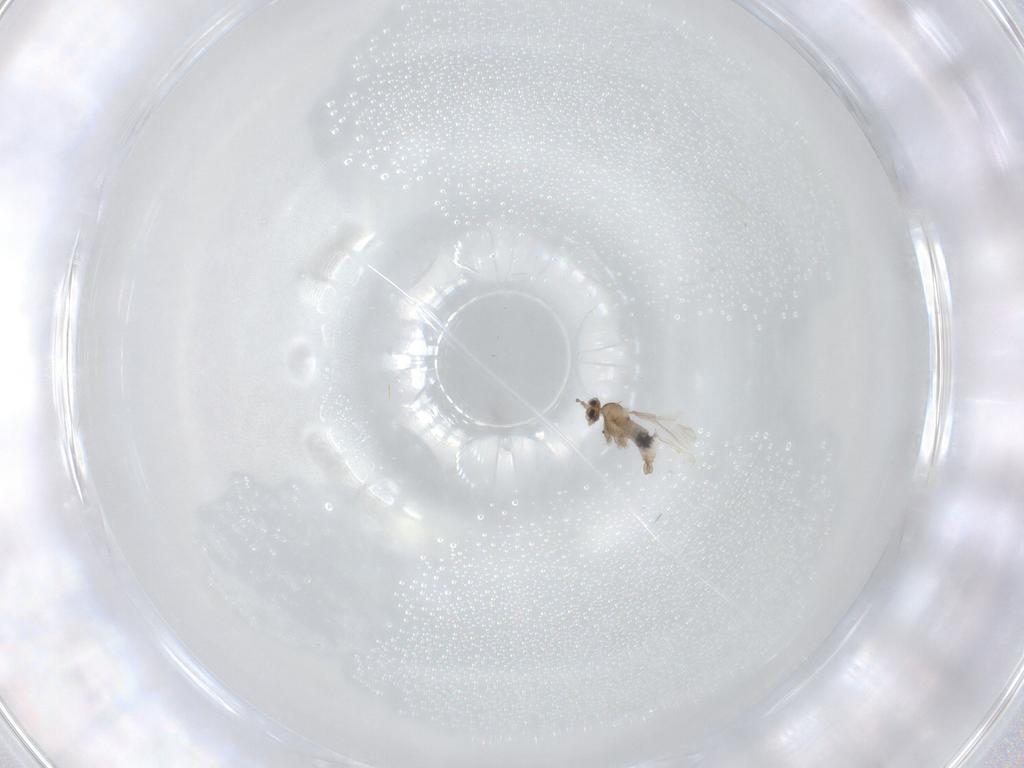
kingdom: Animalia
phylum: Arthropoda
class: Insecta
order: Diptera
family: Cecidomyiidae
